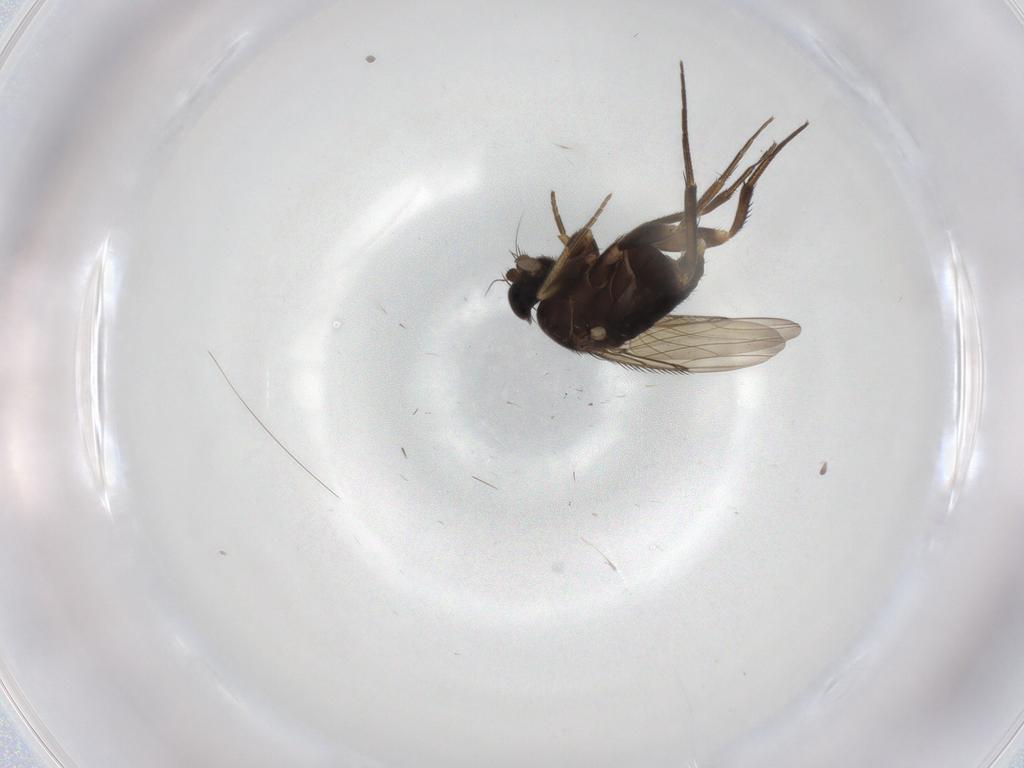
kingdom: Animalia
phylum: Arthropoda
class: Insecta
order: Diptera
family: Phoridae
